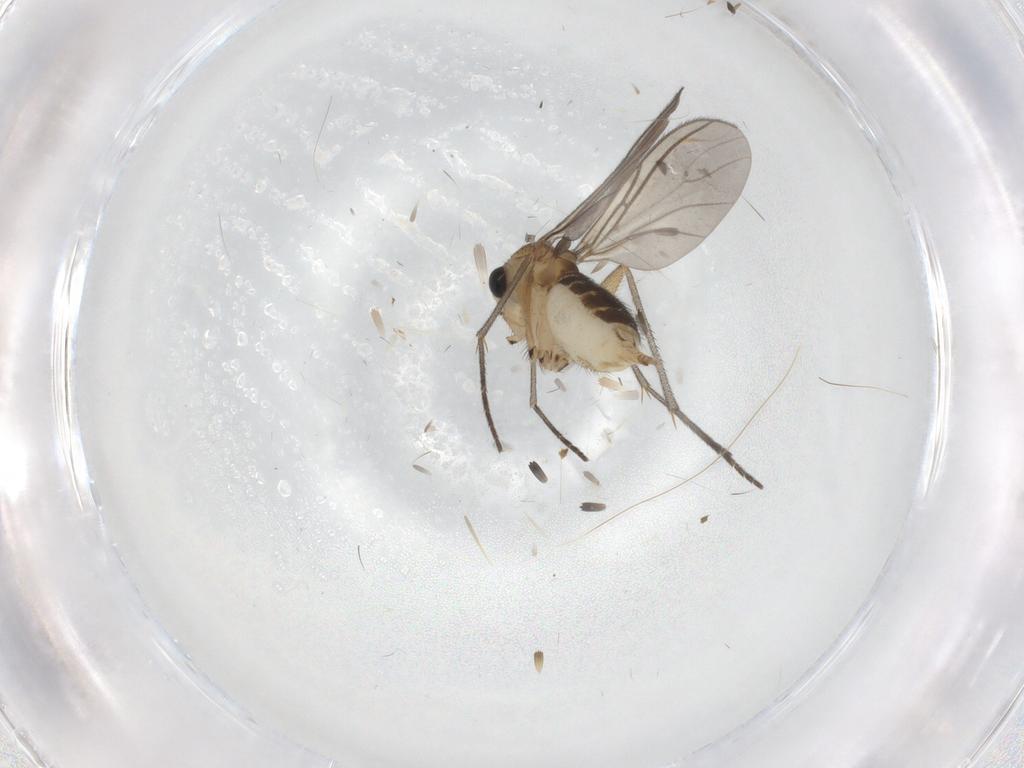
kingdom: Animalia
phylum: Arthropoda
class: Insecta
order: Diptera
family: Sciaridae
